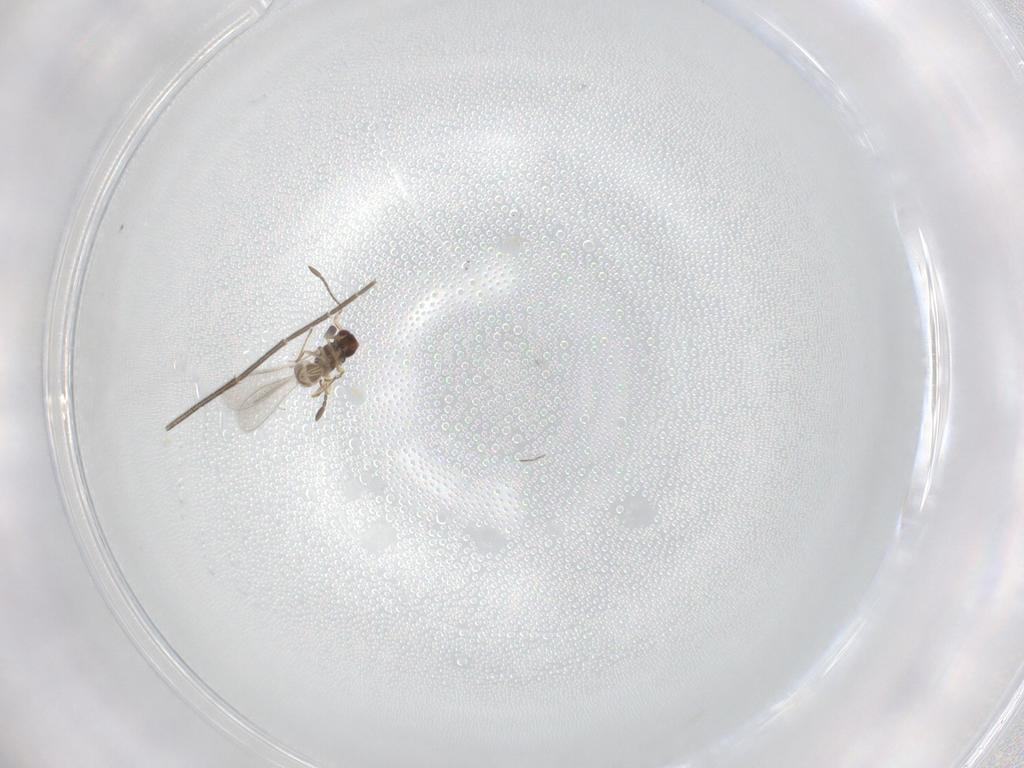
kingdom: Animalia
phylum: Arthropoda
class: Insecta
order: Hymenoptera
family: Mymaridae
